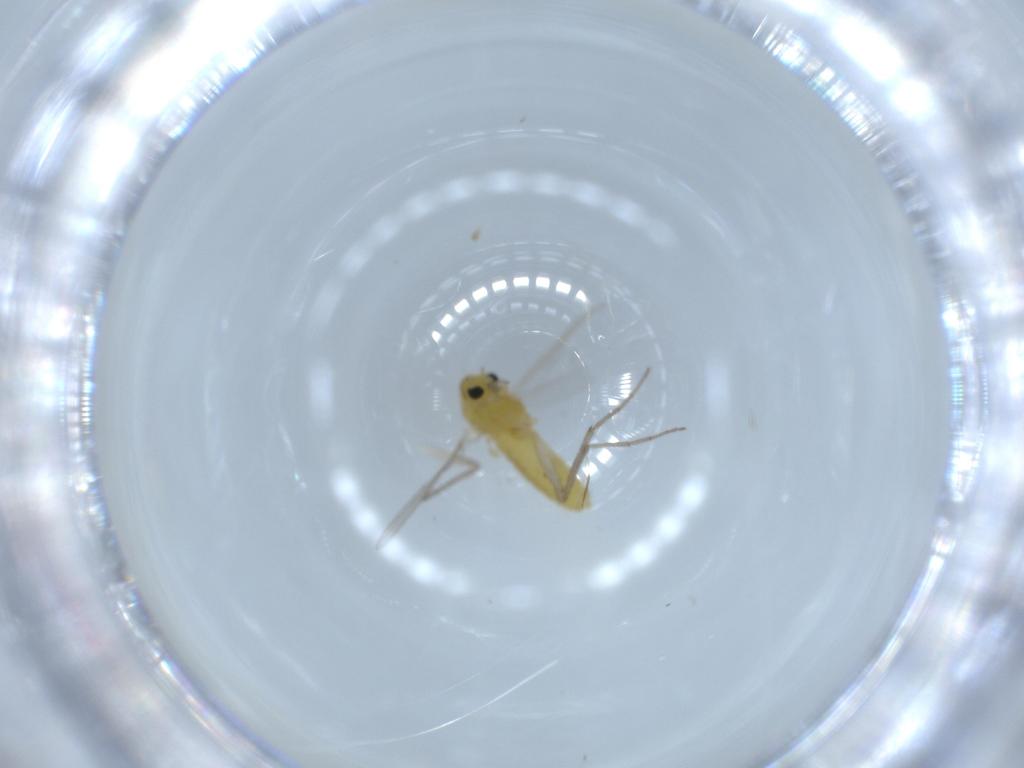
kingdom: Animalia
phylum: Arthropoda
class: Insecta
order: Diptera
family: Chironomidae
